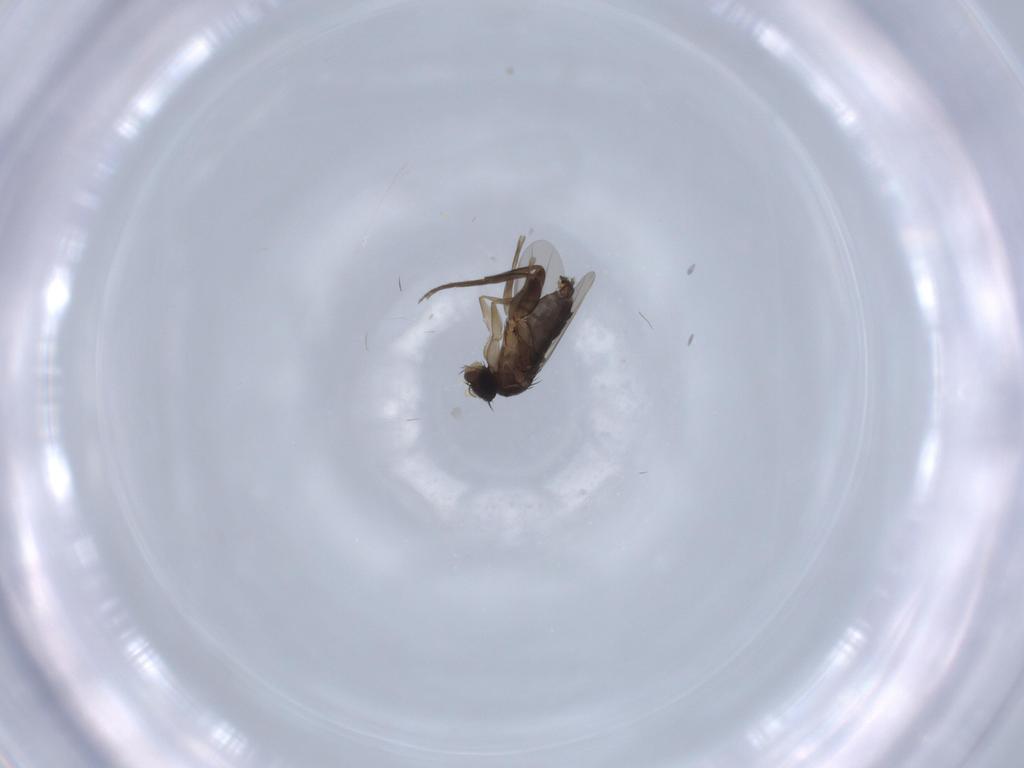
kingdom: Animalia
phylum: Arthropoda
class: Insecta
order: Diptera
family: Phoridae
